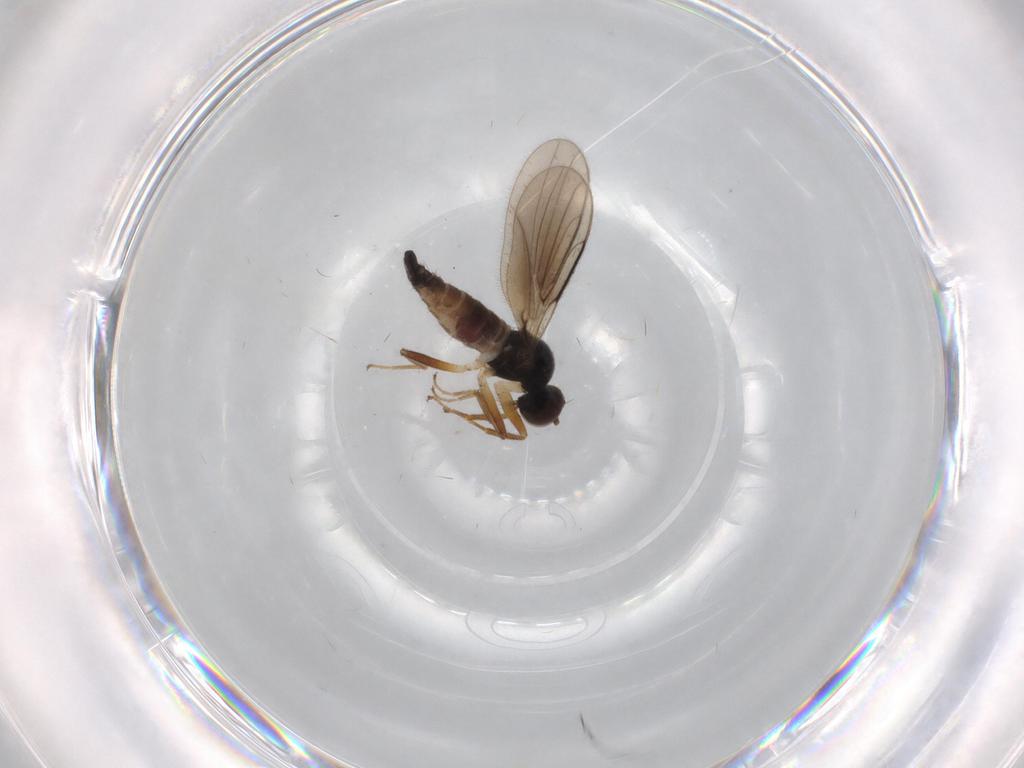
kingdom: Animalia
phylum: Arthropoda
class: Insecta
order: Diptera
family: Hybotidae
